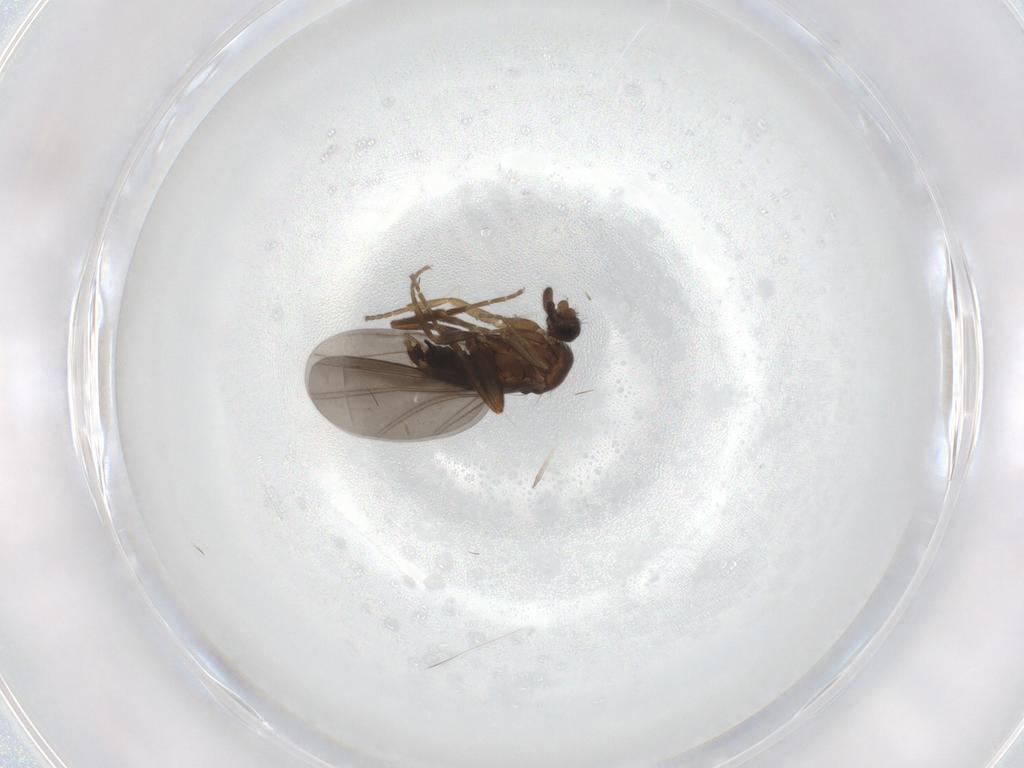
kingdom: Animalia
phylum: Arthropoda
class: Insecta
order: Diptera
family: Phoridae
